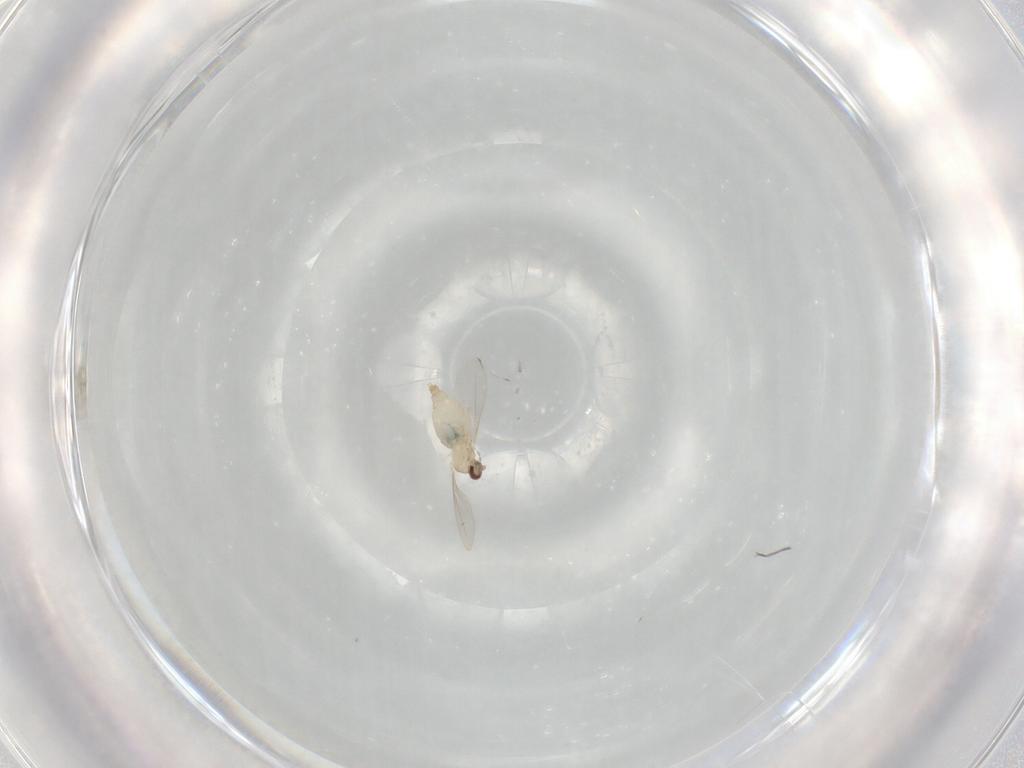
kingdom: Animalia
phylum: Arthropoda
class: Insecta
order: Diptera
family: Cecidomyiidae
